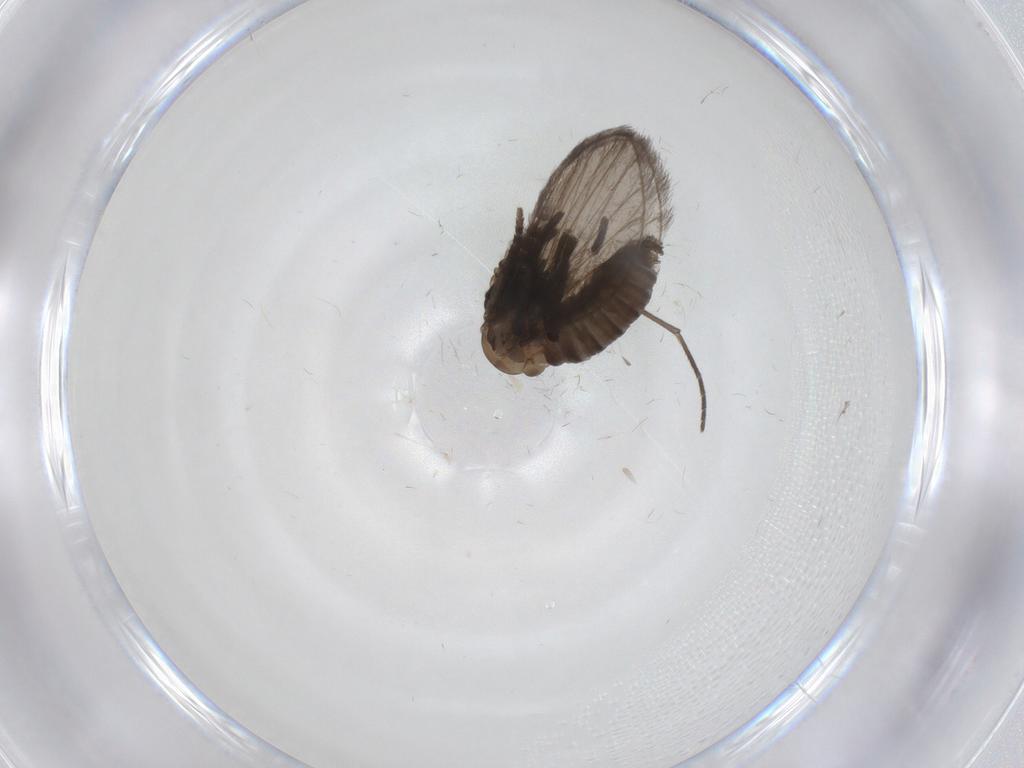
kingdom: Animalia
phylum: Arthropoda
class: Insecta
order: Diptera
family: Psychodidae
